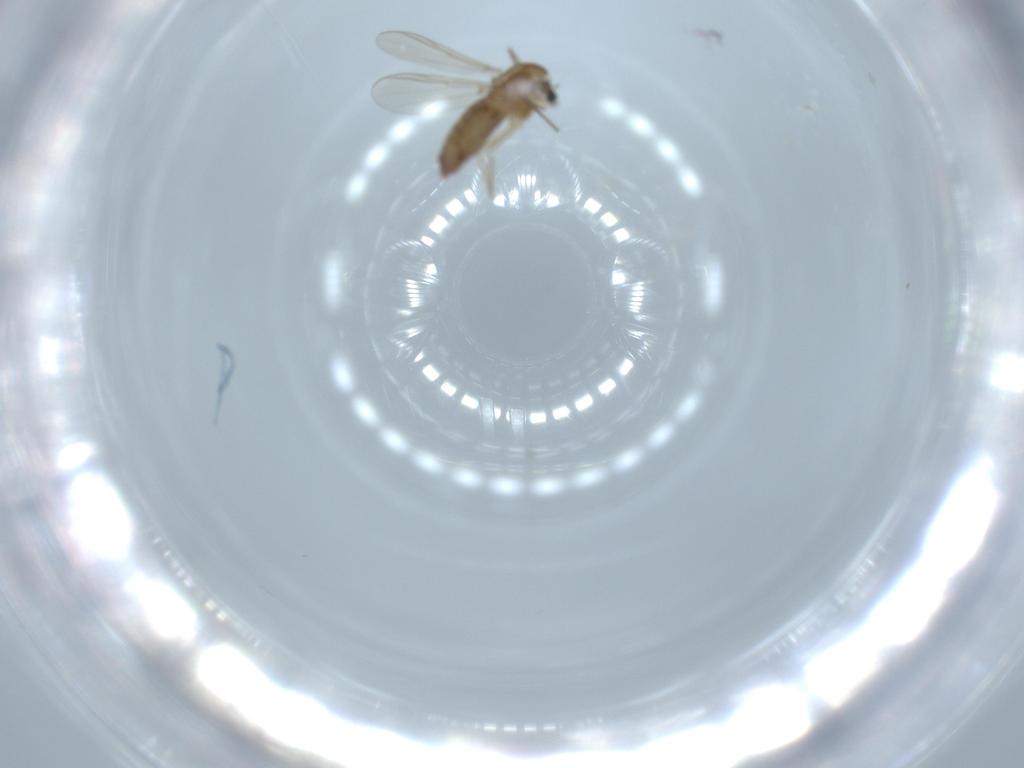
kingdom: Animalia
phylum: Arthropoda
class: Insecta
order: Diptera
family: Chironomidae
